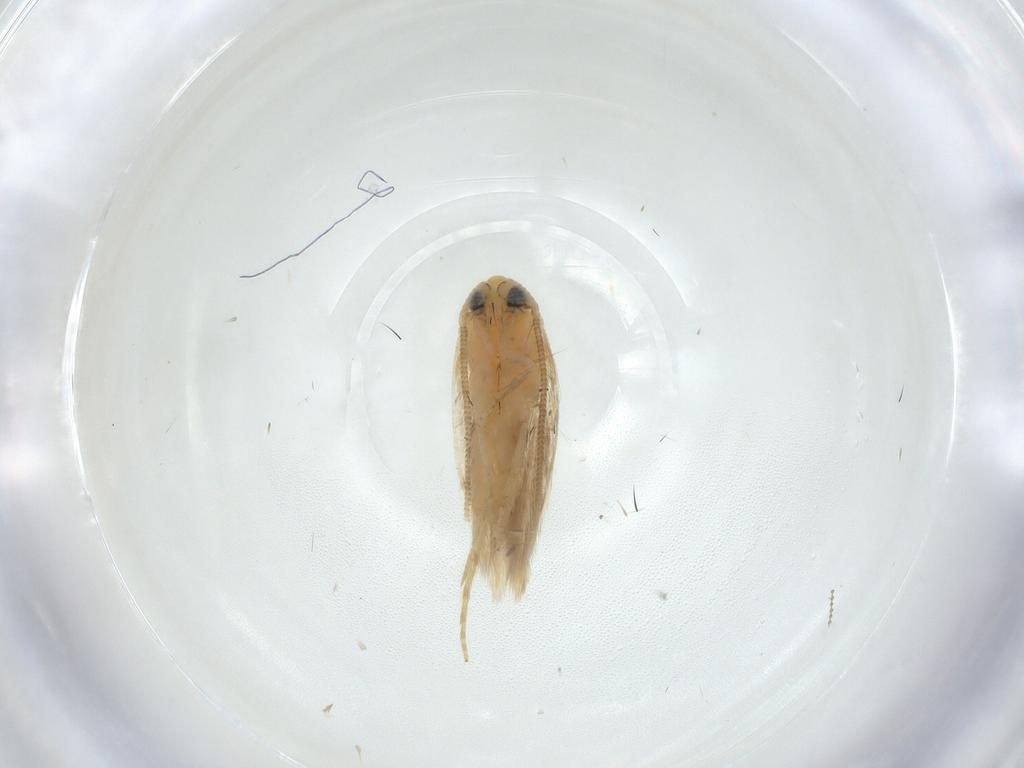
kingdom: Animalia
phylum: Arthropoda
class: Insecta
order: Lepidoptera
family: Opostegidae
